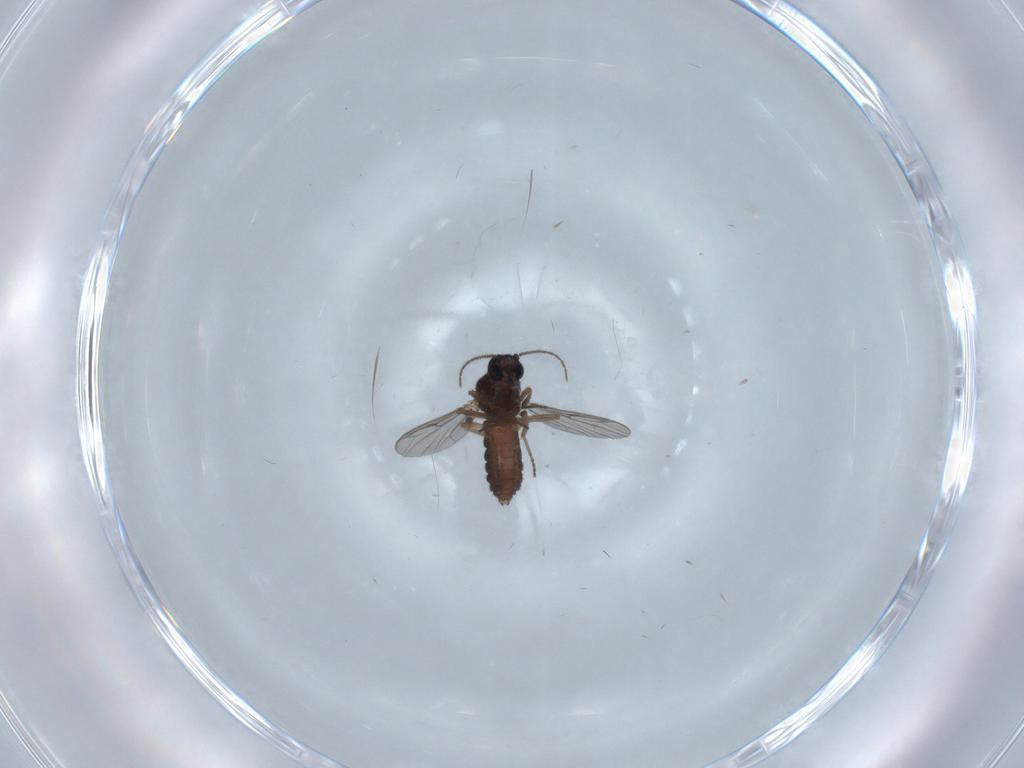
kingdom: Animalia
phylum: Arthropoda
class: Insecta
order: Diptera
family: Ceratopogonidae
